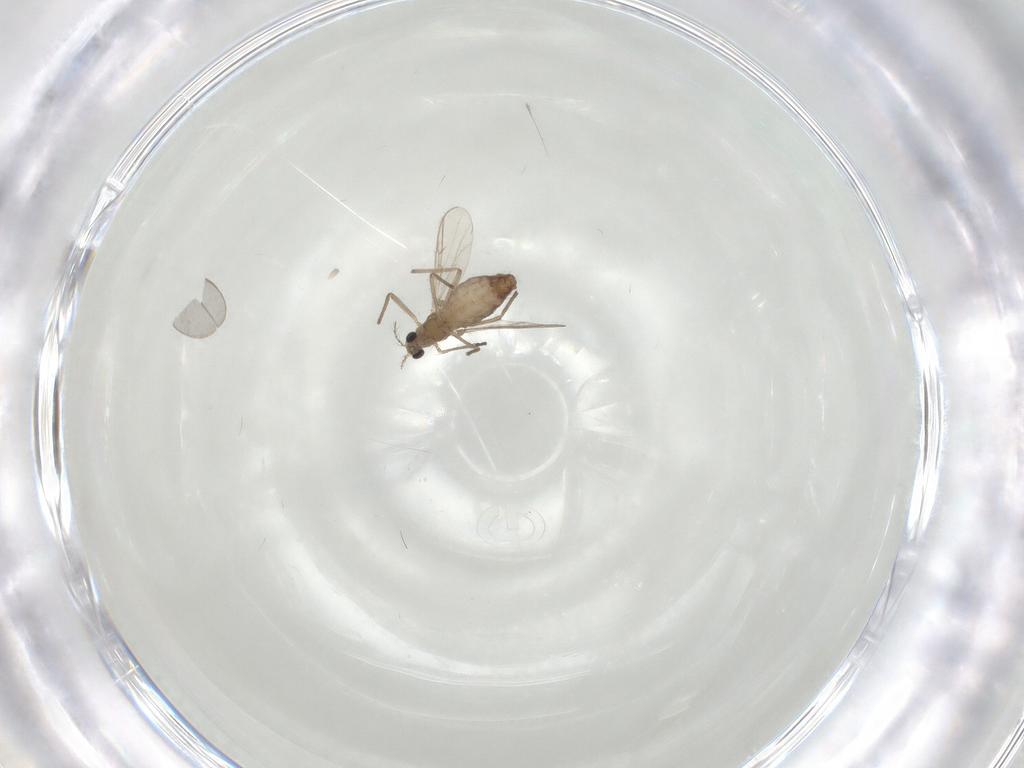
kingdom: Animalia
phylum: Arthropoda
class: Insecta
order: Diptera
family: Chironomidae
